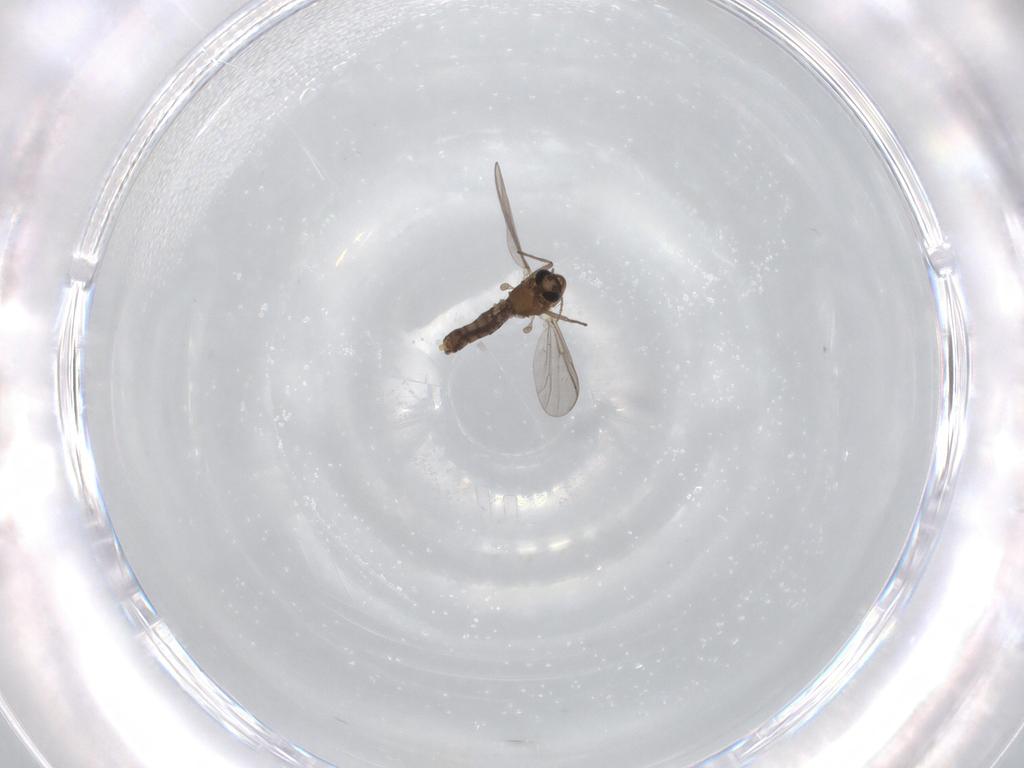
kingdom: Animalia
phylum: Arthropoda
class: Insecta
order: Diptera
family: Chironomidae
